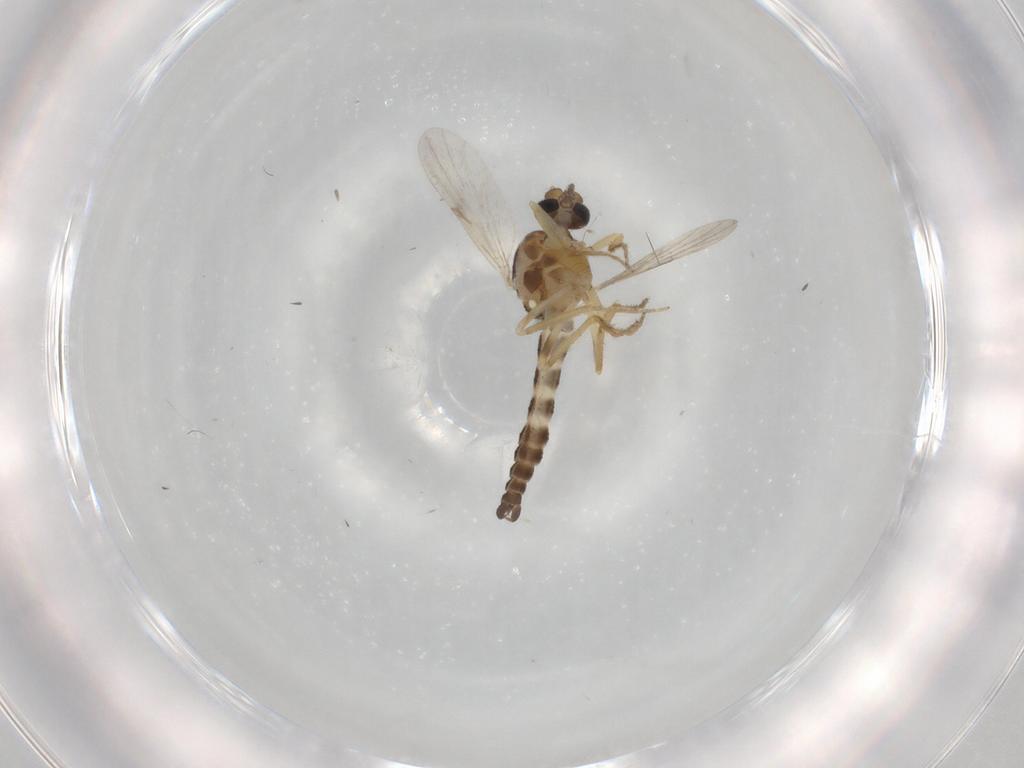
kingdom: Animalia
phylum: Arthropoda
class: Insecta
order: Diptera
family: Ceratopogonidae
